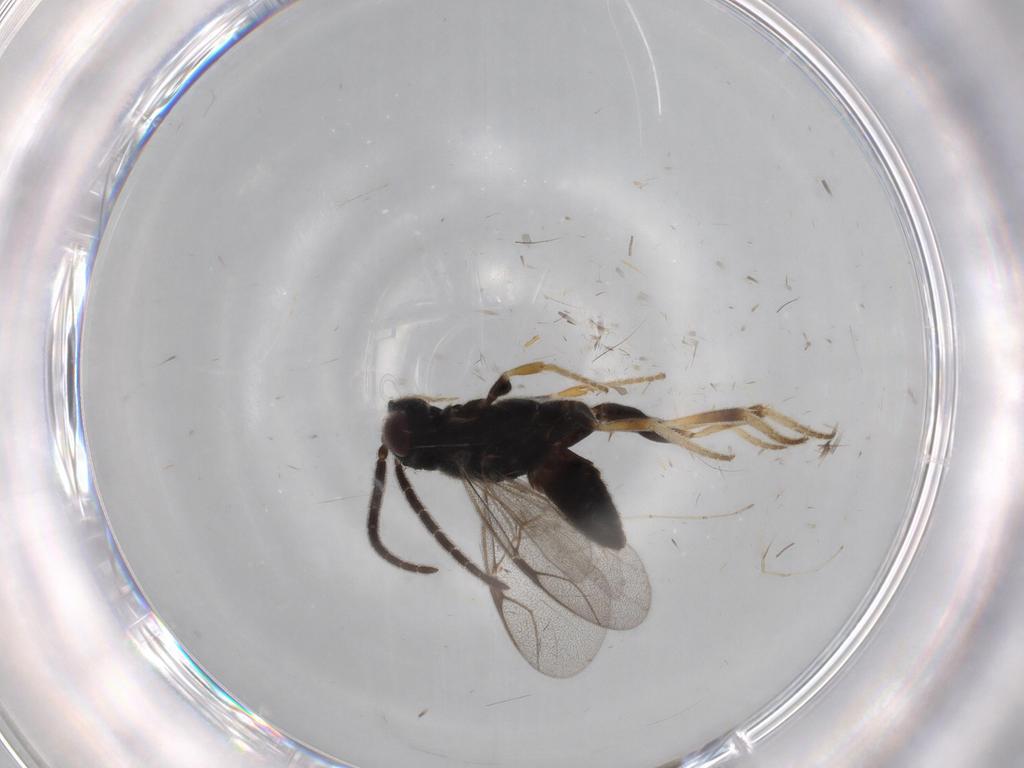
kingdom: Animalia
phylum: Arthropoda
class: Insecta
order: Hymenoptera
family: Dryinidae
